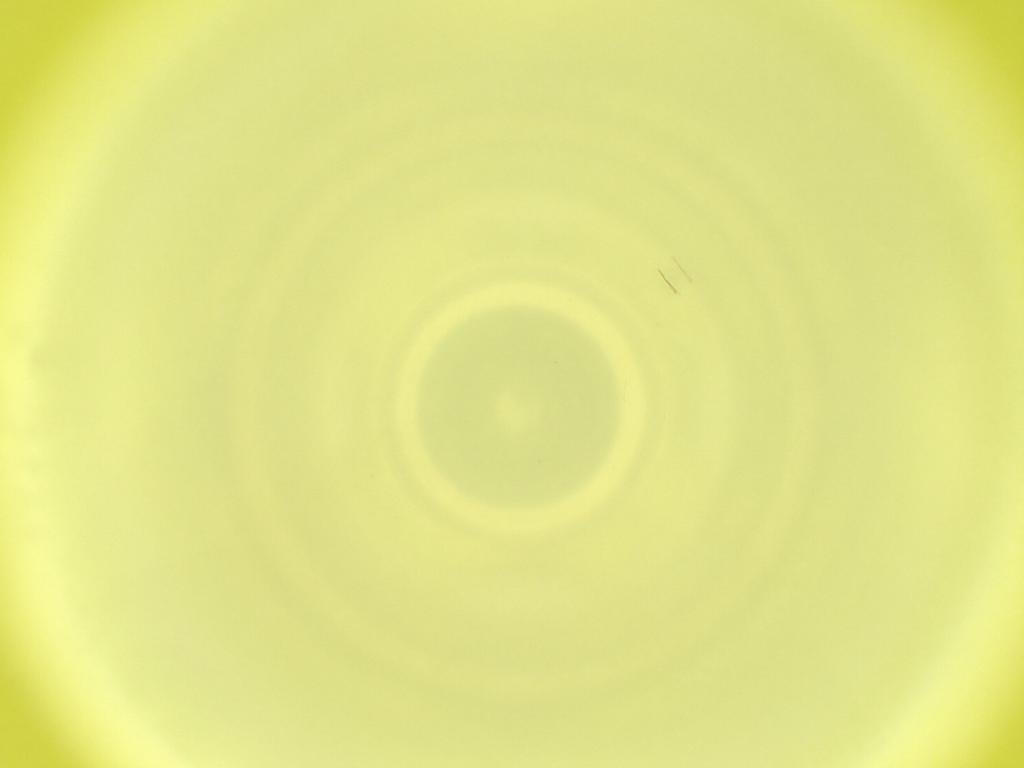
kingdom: Animalia
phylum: Arthropoda
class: Insecta
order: Diptera
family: Cecidomyiidae
